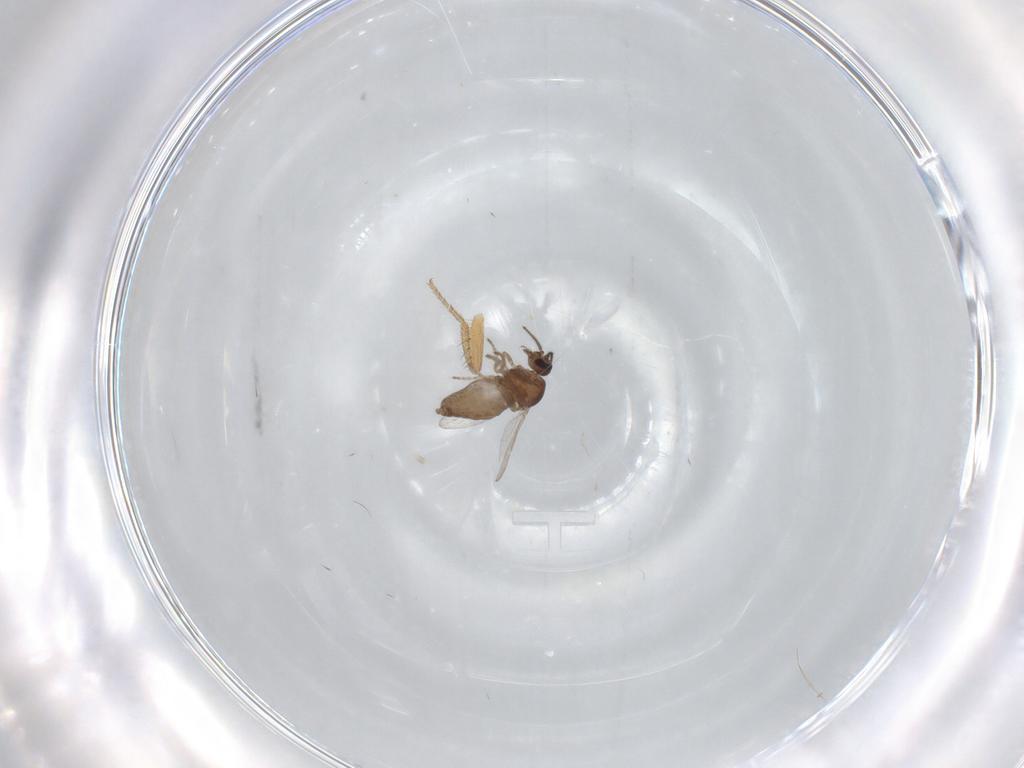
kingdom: Animalia
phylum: Arthropoda
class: Insecta
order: Diptera
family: Ceratopogonidae
